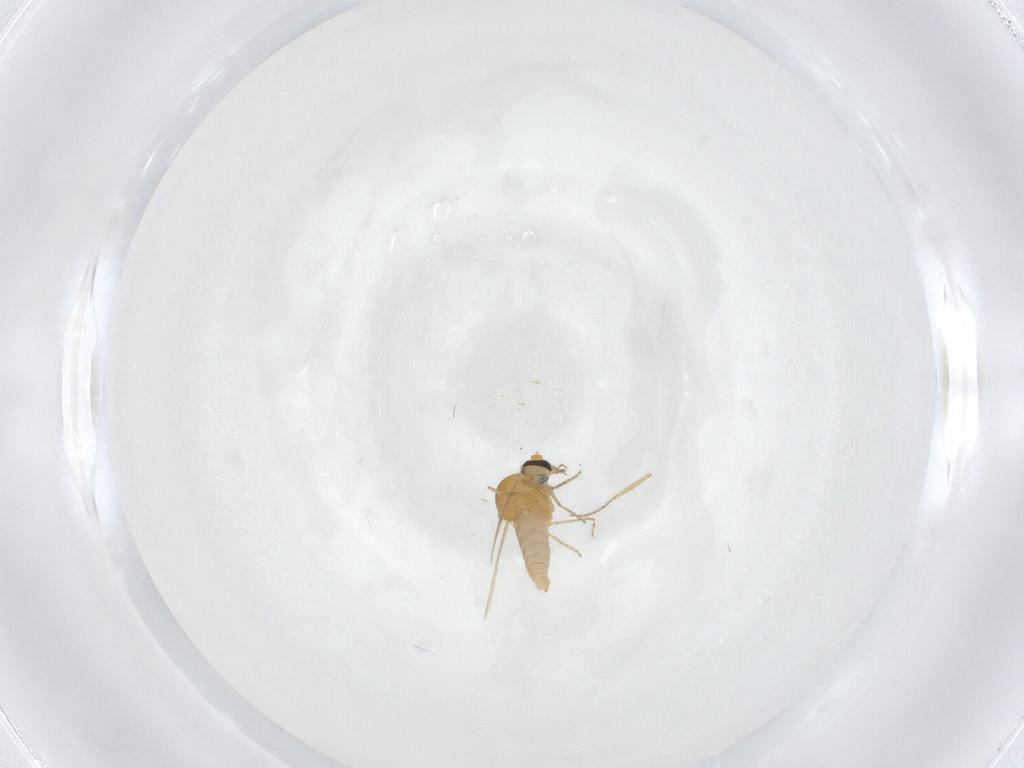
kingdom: Animalia
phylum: Arthropoda
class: Insecta
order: Diptera
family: Ceratopogonidae
